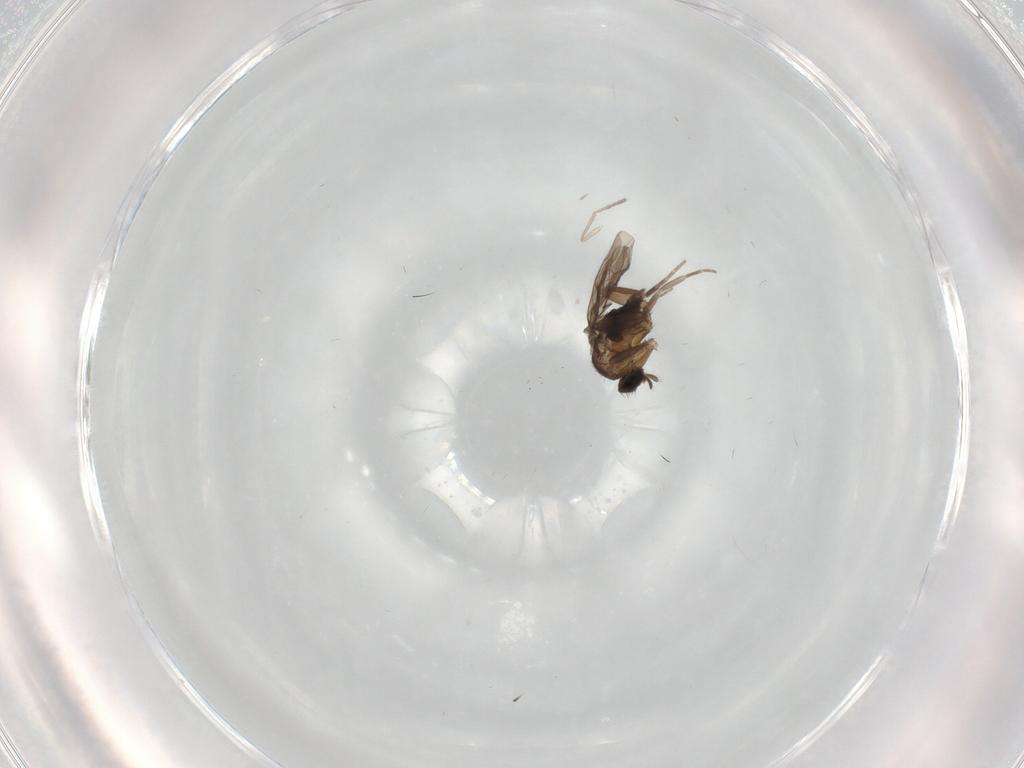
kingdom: Animalia
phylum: Arthropoda
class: Insecta
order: Diptera
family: Psychodidae
